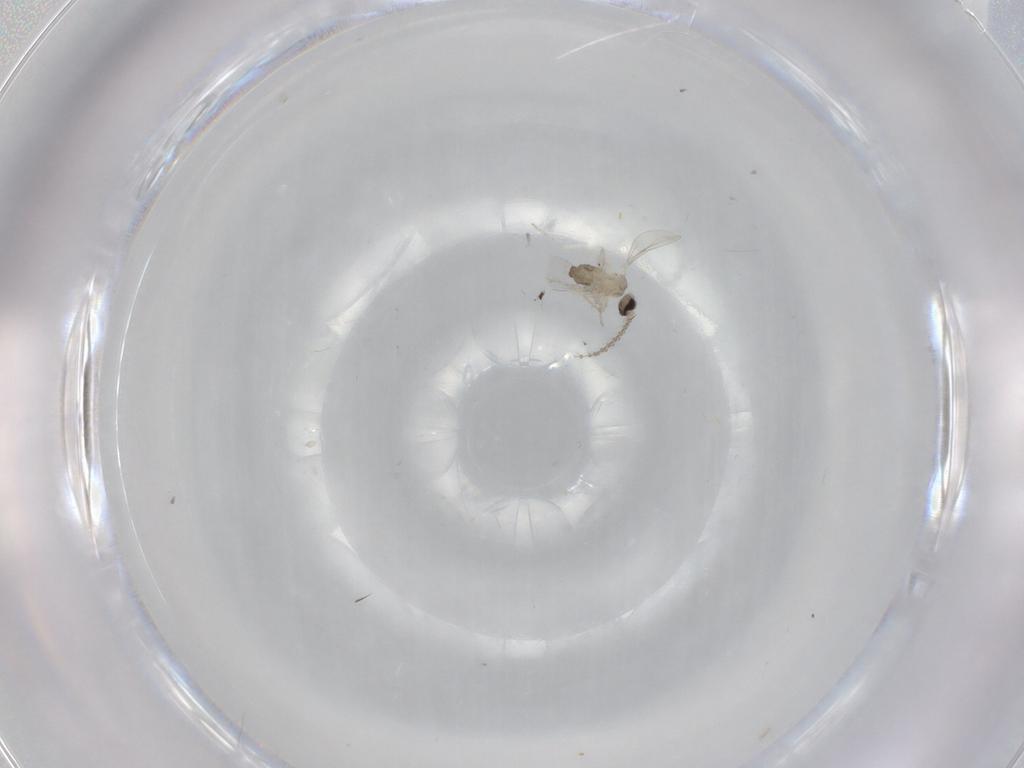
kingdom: Animalia
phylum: Arthropoda
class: Insecta
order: Diptera
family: Cecidomyiidae
